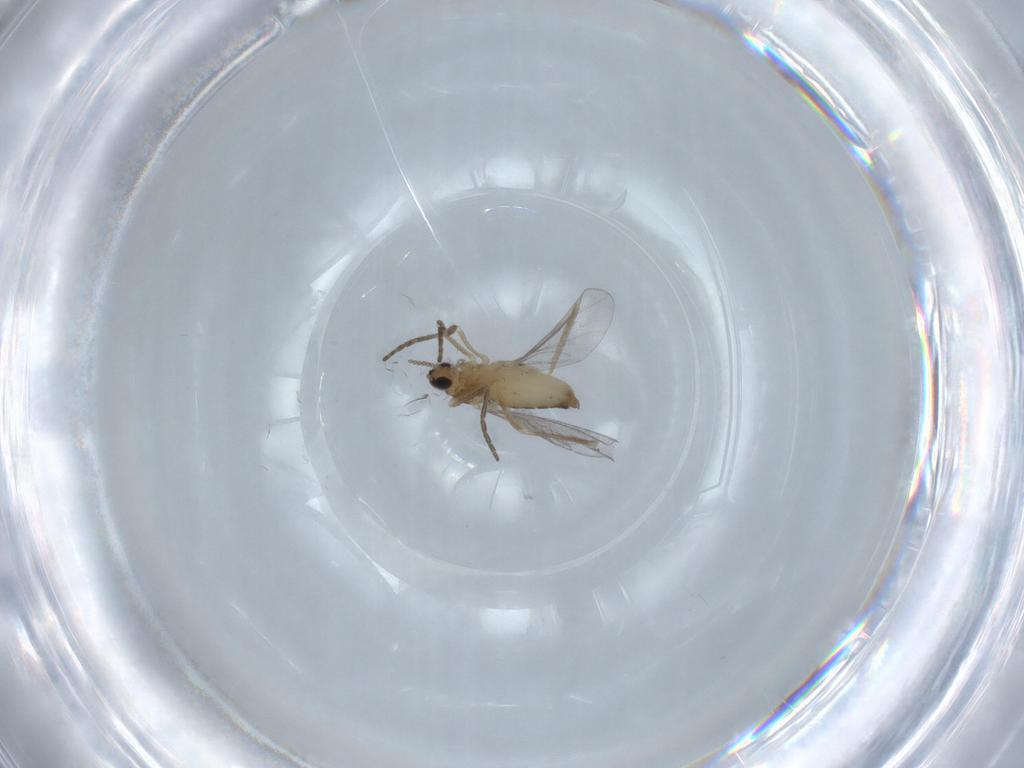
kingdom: Animalia
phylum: Arthropoda
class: Insecta
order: Diptera
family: Cecidomyiidae
